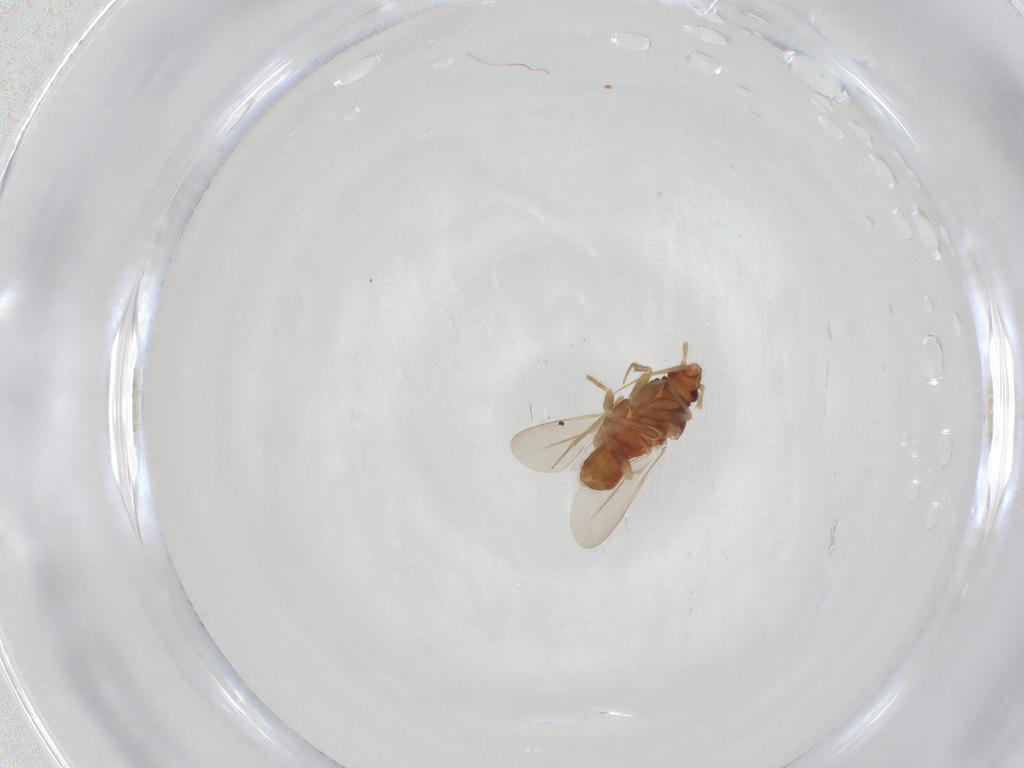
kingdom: Animalia
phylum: Arthropoda
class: Insecta
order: Hemiptera
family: Ceratocombidae
